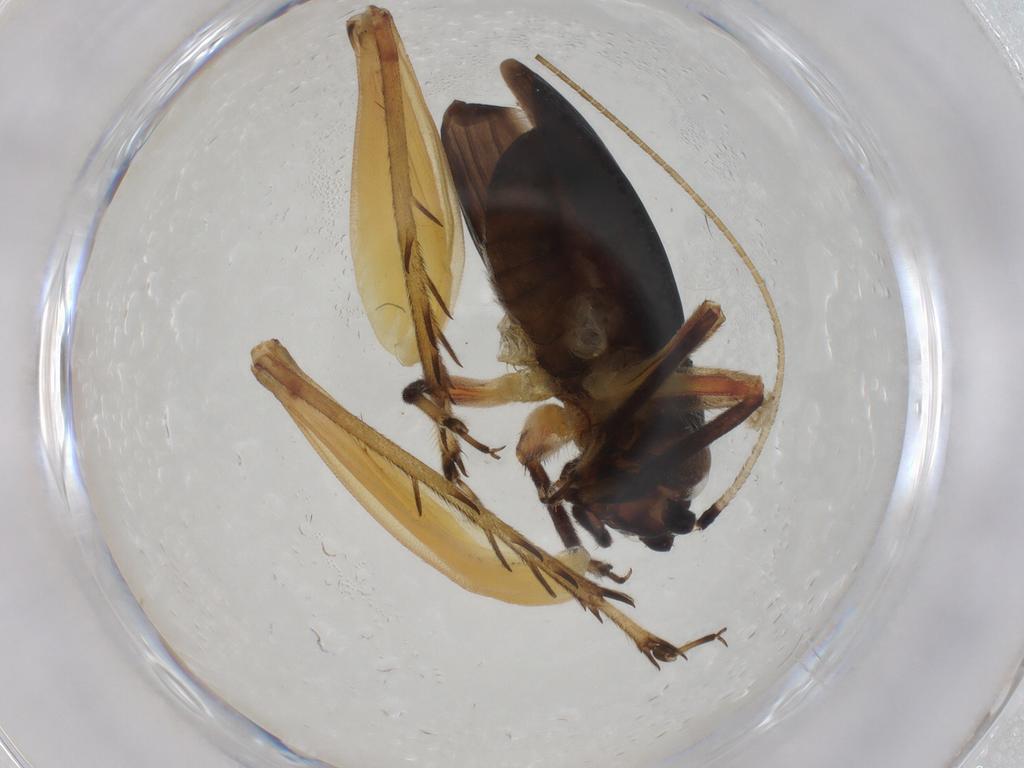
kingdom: Animalia
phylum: Arthropoda
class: Insecta
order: Orthoptera
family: Trigonidiidae
